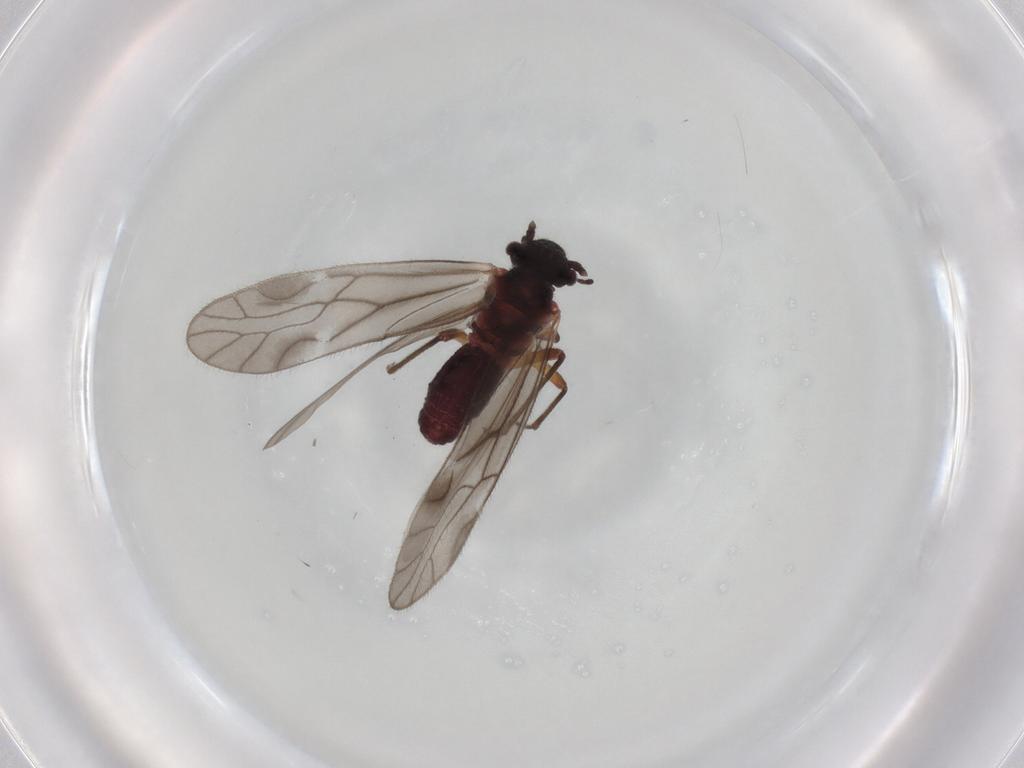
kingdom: Animalia
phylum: Arthropoda
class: Insecta
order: Psocodea
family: Trichopsocidae
